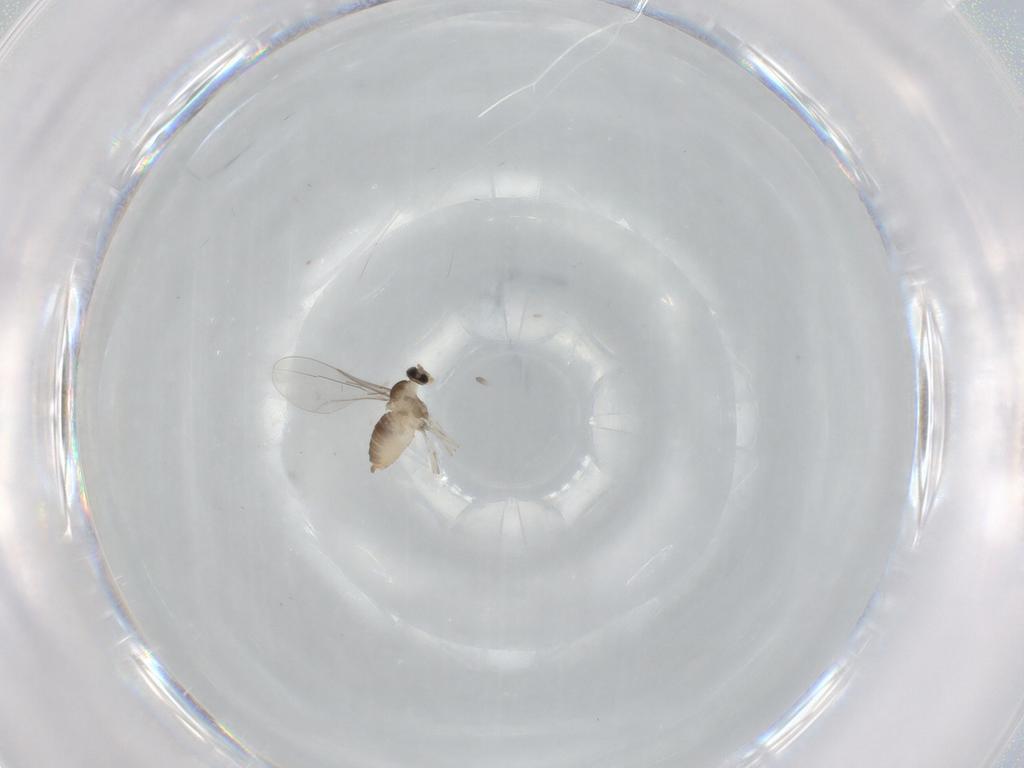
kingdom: Animalia
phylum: Arthropoda
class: Insecta
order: Diptera
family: Cecidomyiidae
